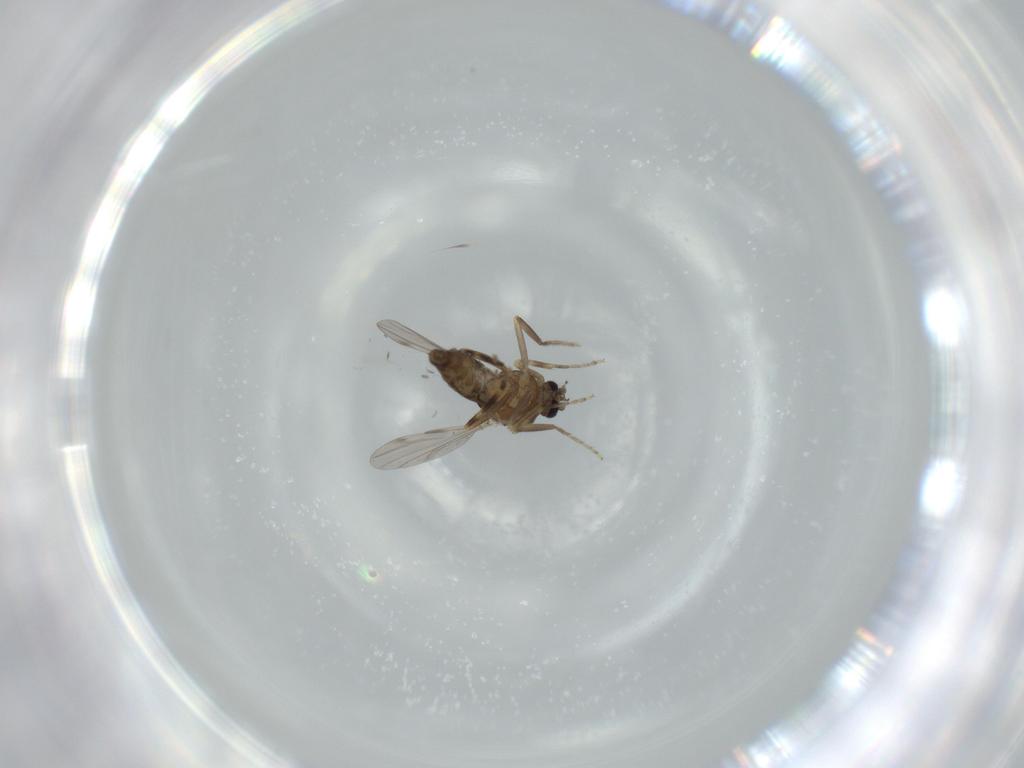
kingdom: Animalia
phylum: Arthropoda
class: Insecta
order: Diptera
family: Ceratopogonidae
